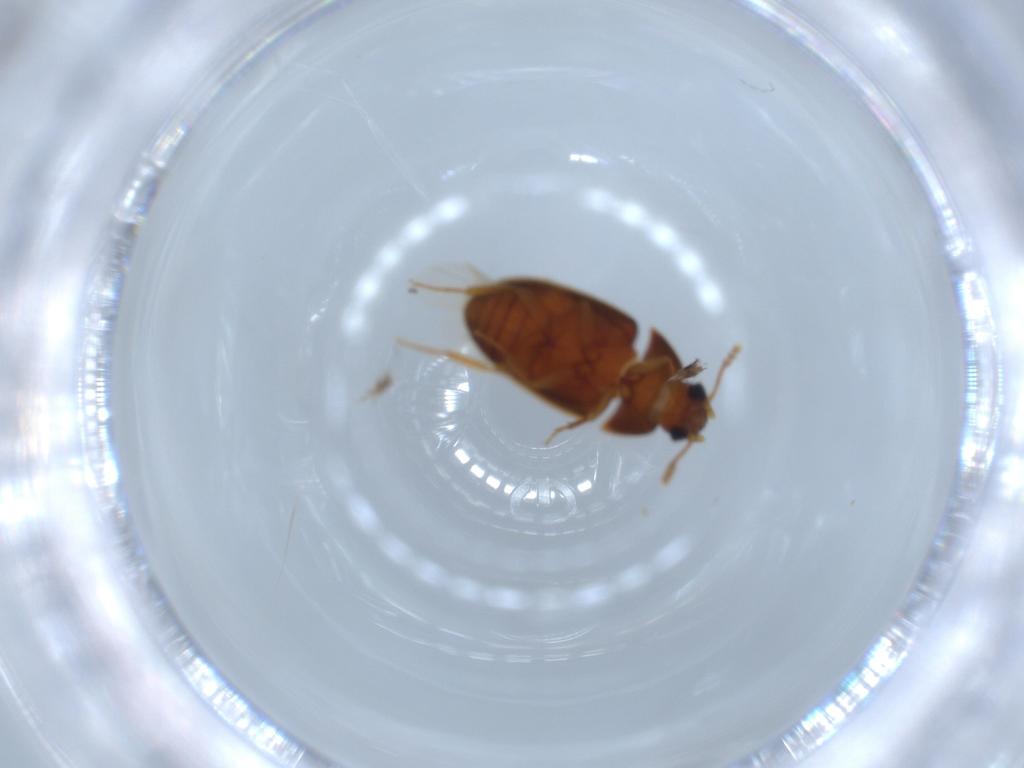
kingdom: Animalia
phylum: Arthropoda
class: Insecta
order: Coleoptera
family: Mycetophagidae
